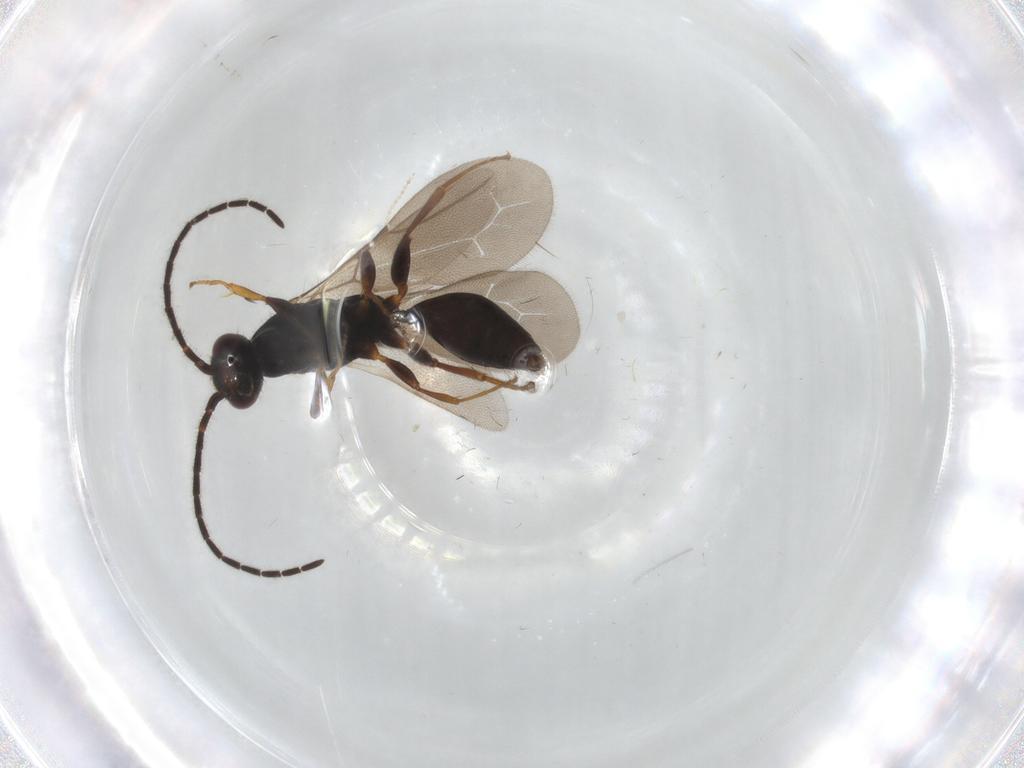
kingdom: Animalia
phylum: Arthropoda
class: Insecta
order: Hymenoptera
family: Bethylidae
